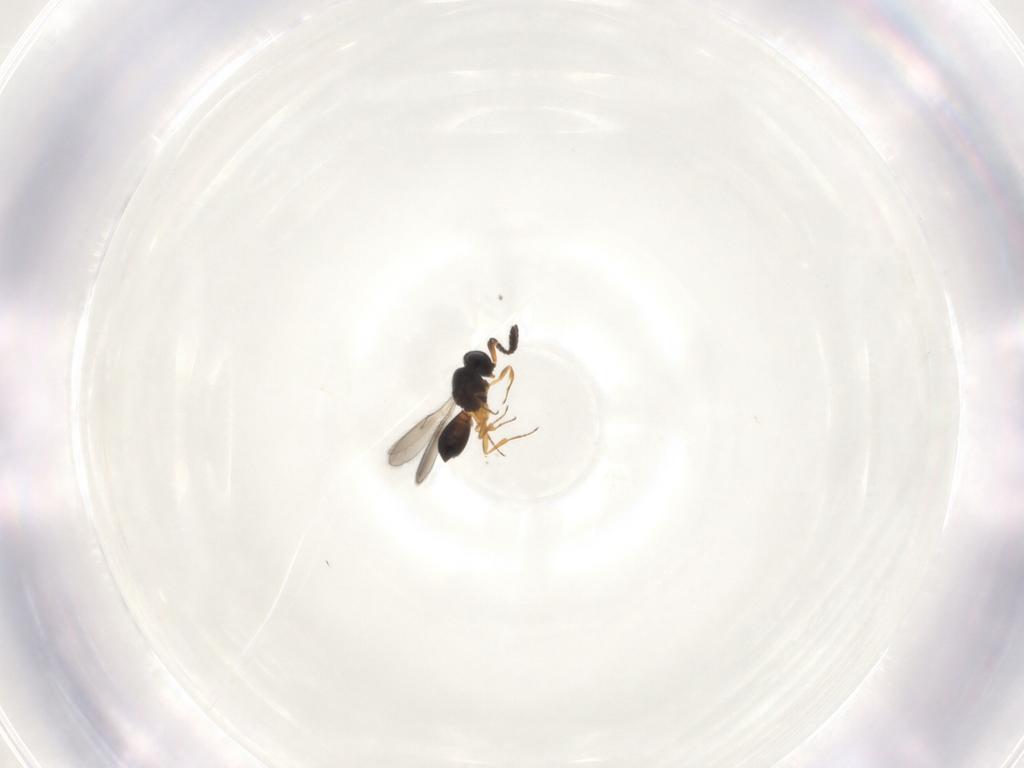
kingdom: Animalia
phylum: Arthropoda
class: Insecta
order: Hymenoptera
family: Scelionidae
